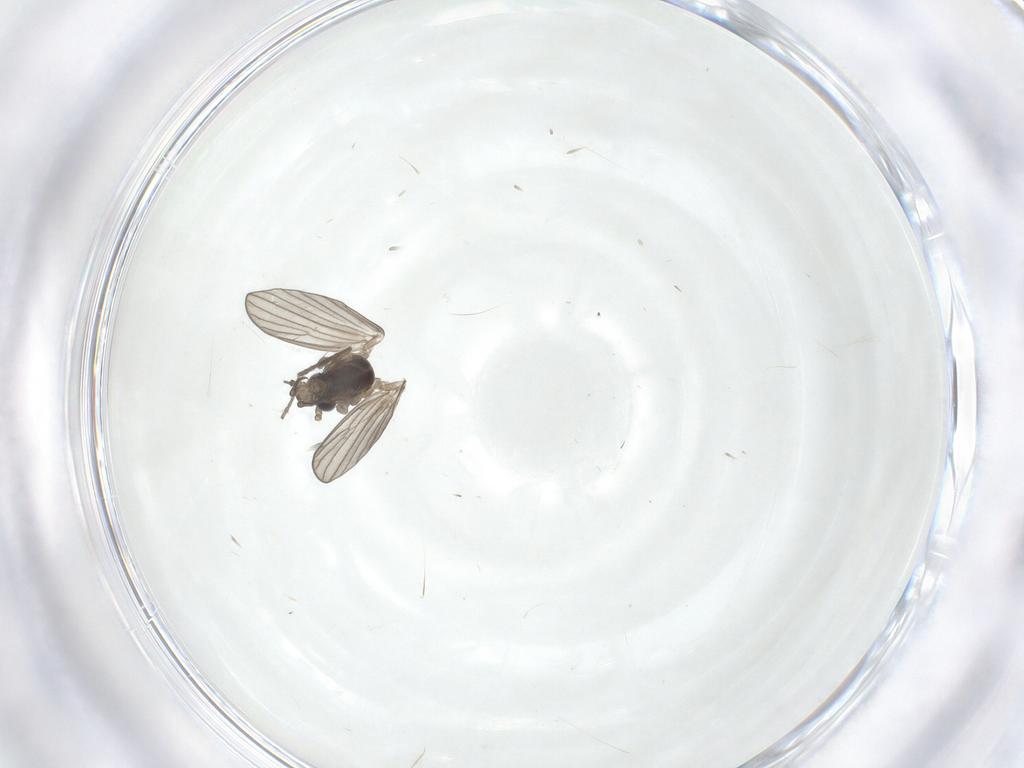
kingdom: Animalia
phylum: Arthropoda
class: Insecta
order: Diptera
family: Psychodidae
